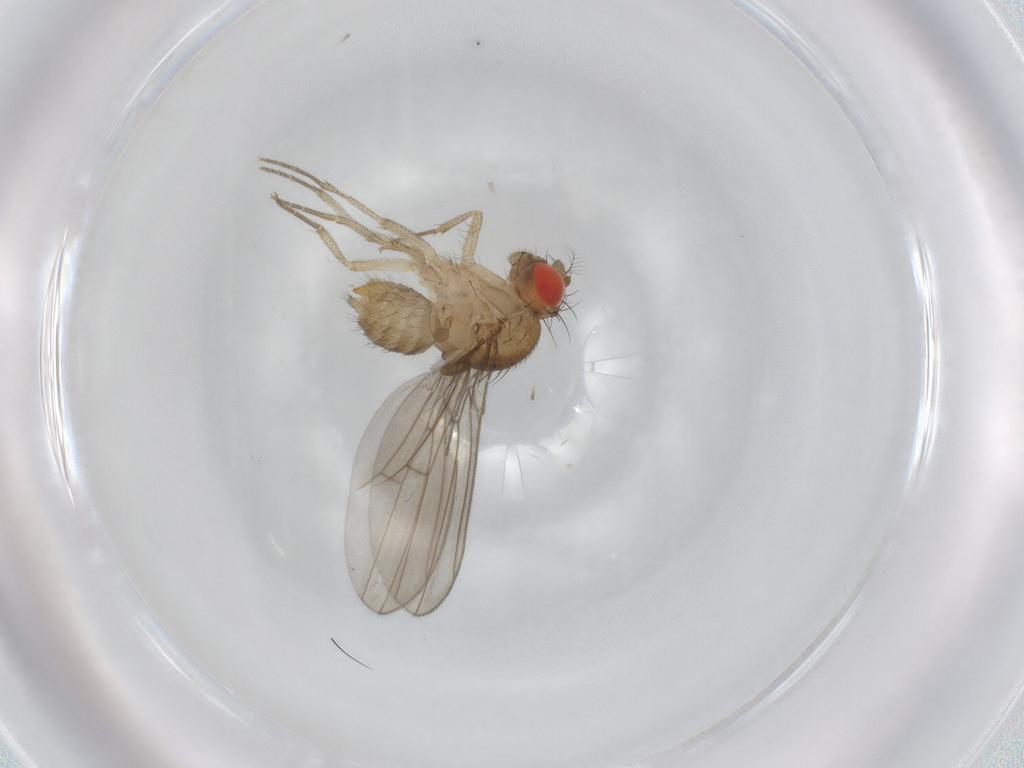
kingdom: Animalia
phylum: Arthropoda
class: Insecta
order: Diptera
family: Drosophilidae
